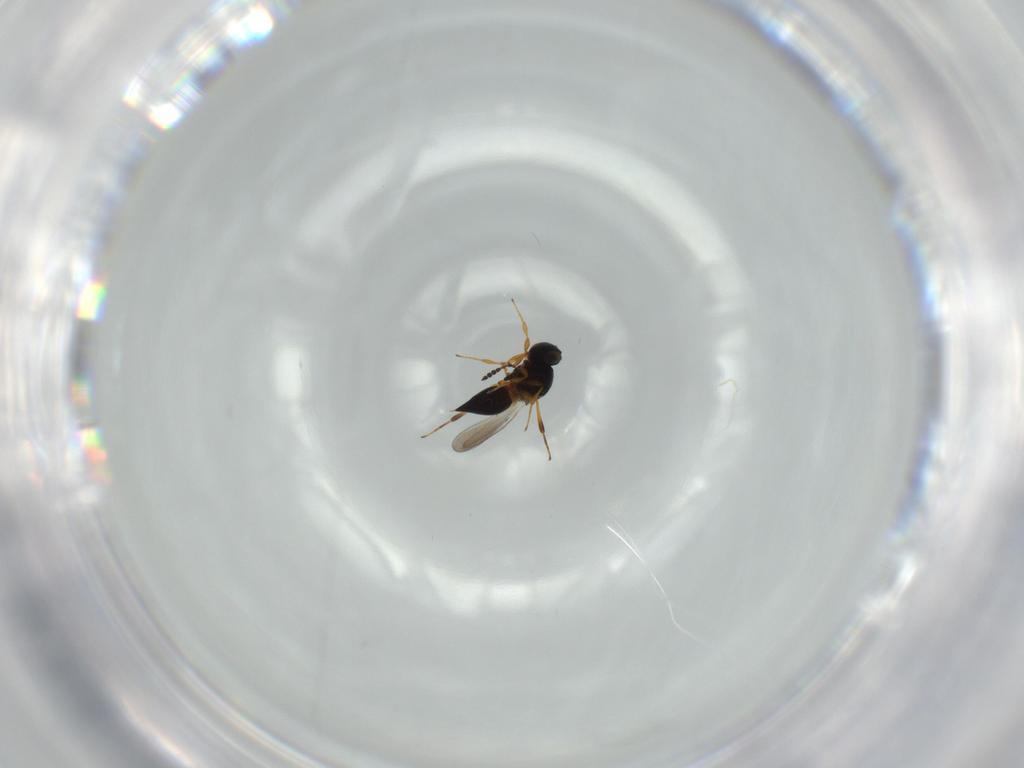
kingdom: Animalia
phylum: Arthropoda
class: Insecta
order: Hymenoptera
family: Platygastridae
